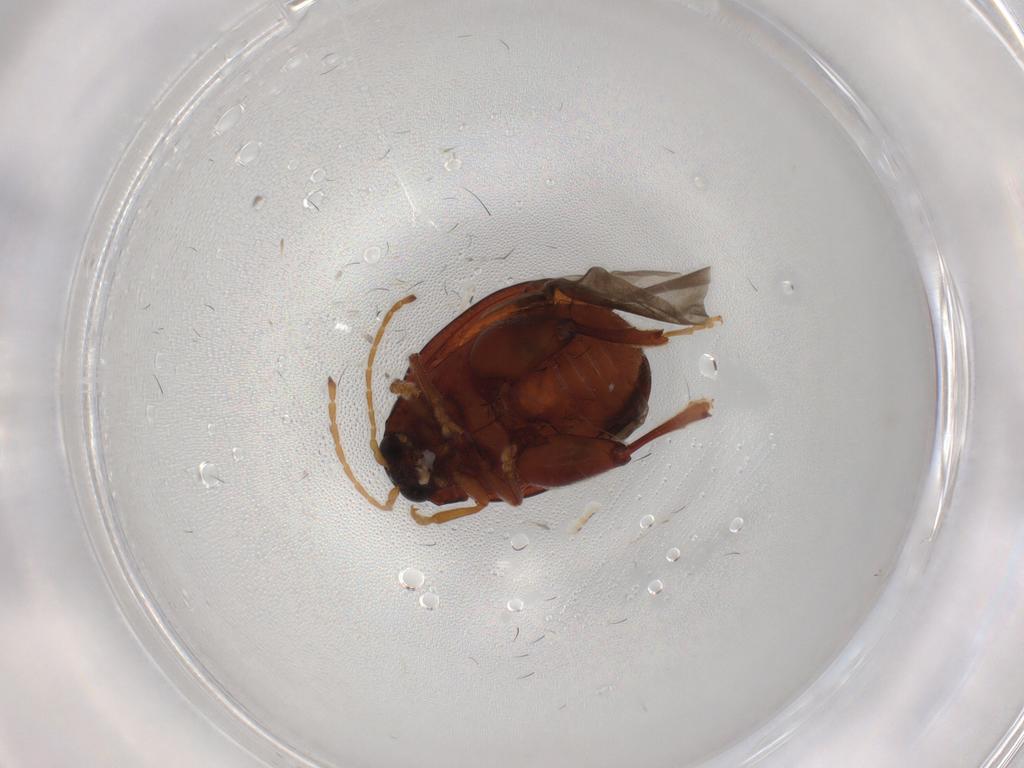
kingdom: Animalia
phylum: Arthropoda
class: Insecta
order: Coleoptera
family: Chrysomelidae
